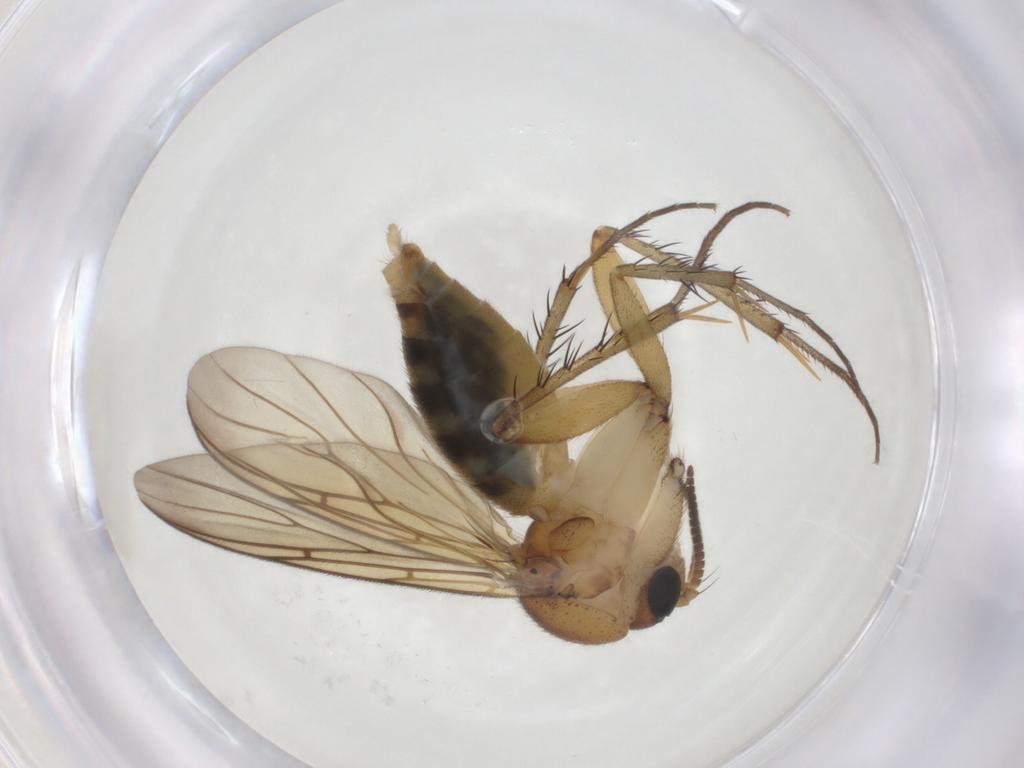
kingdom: Animalia
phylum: Arthropoda
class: Insecta
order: Diptera
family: Mycetophilidae
